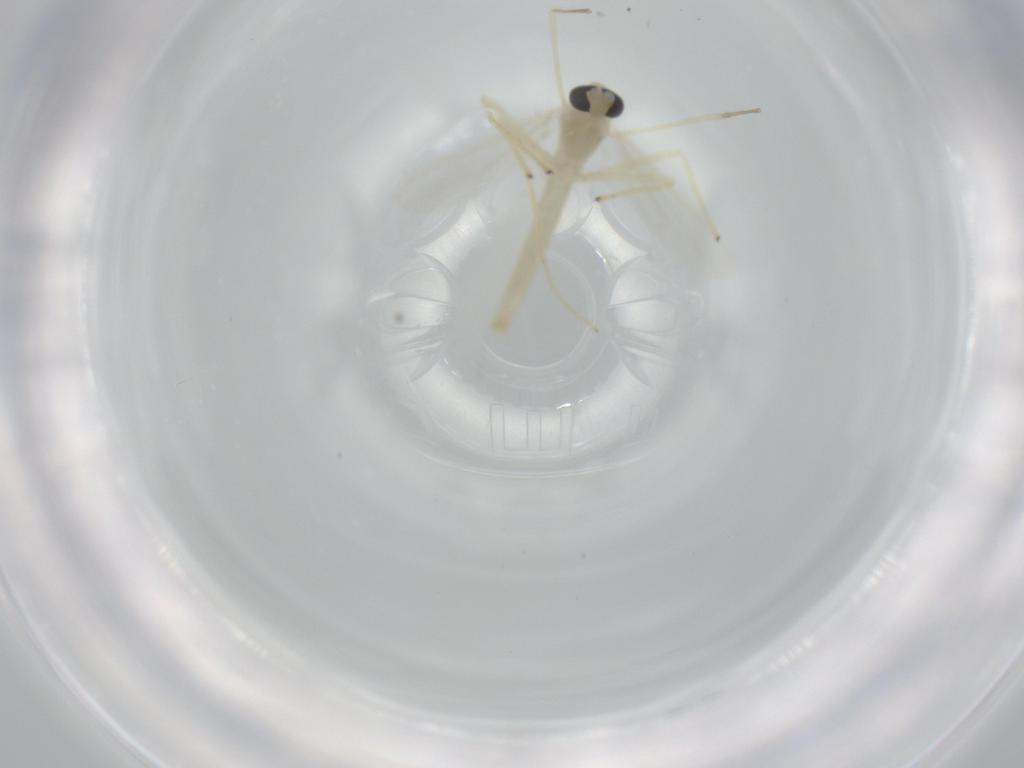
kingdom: Animalia
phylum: Arthropoda
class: Insecta
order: Diptera
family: Chironomidae
